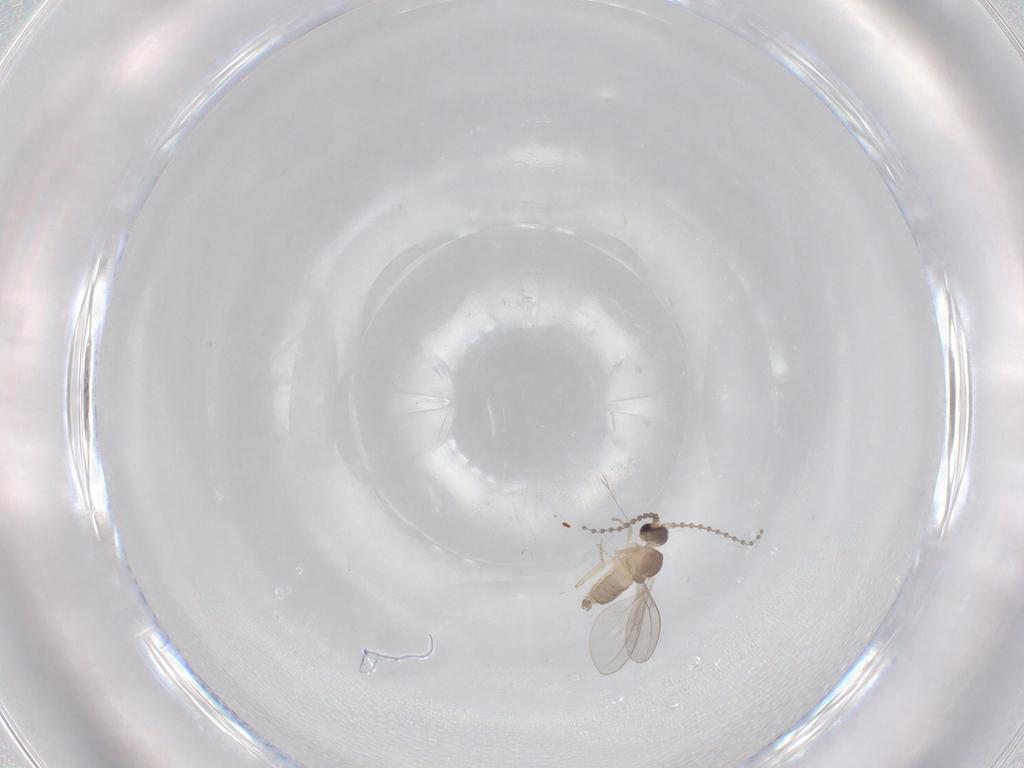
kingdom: Animalia
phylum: Arthropoda
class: Insecta
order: Diptera
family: Cecidomyiidae
